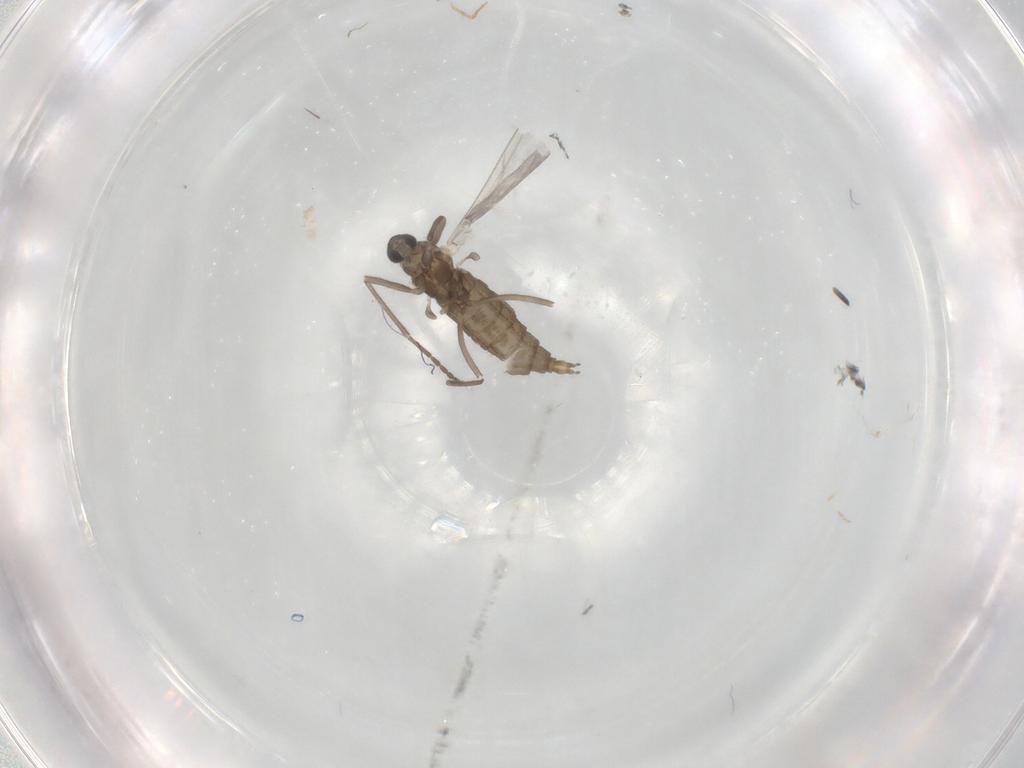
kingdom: Animalia
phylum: Arthropoda
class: Insecta
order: Diptera
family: Cecidomyiidae
